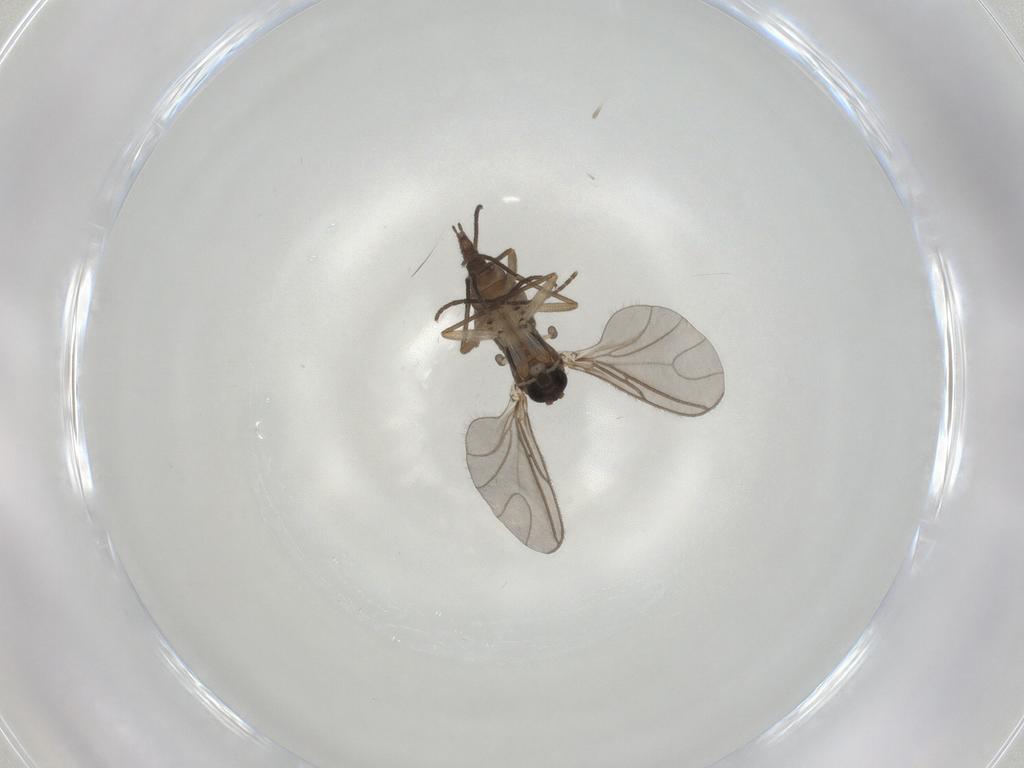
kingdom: Animalia
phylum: Arthropoda
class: Insecta
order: Diptera
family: Sciaridae
